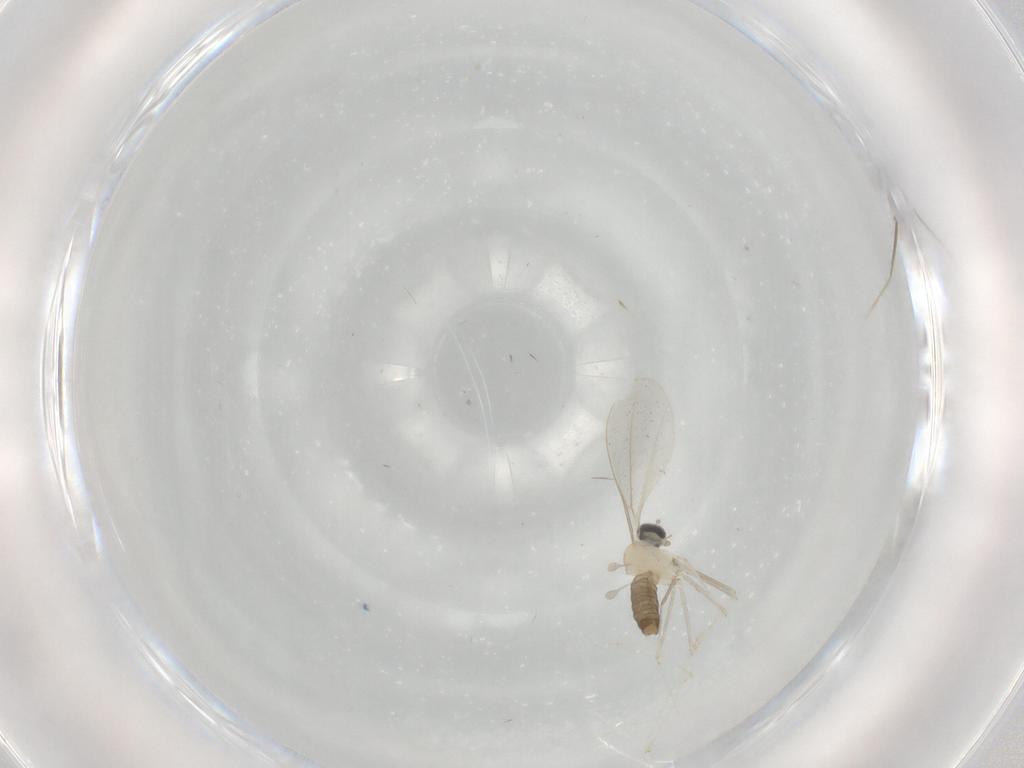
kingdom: Animalia
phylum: Arthropoda
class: Insecta
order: Diptera
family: Cecidomyiidae
